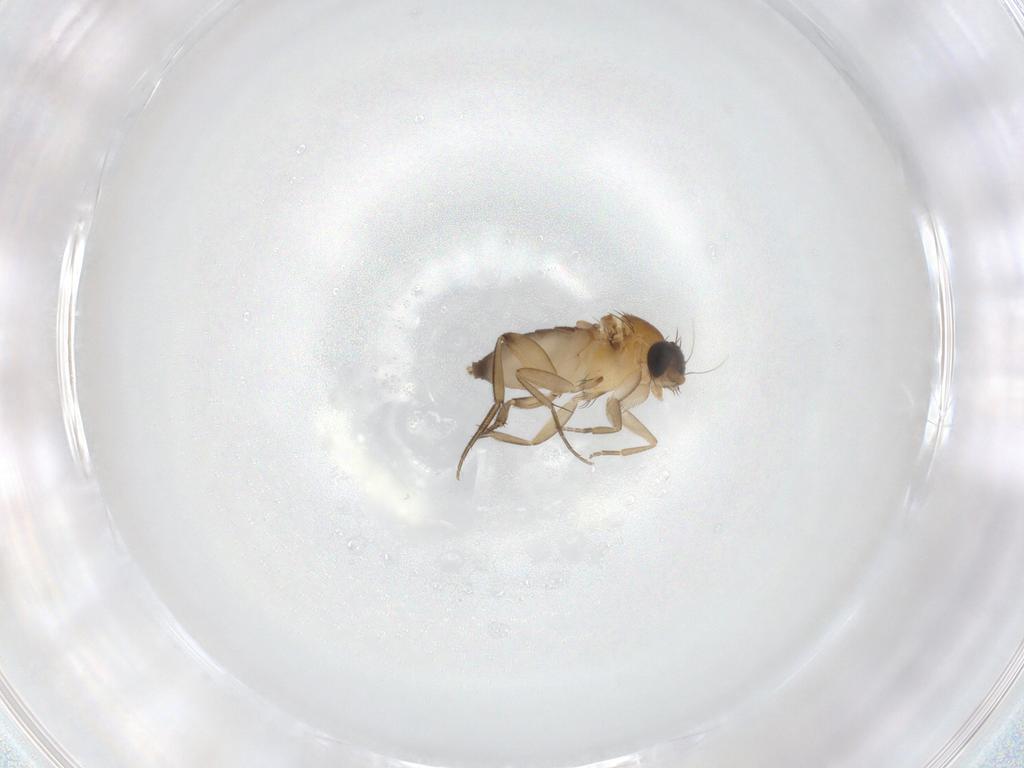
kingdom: Animalia
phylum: Arthropoda
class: Insecta
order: Diptera
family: Phoridae
